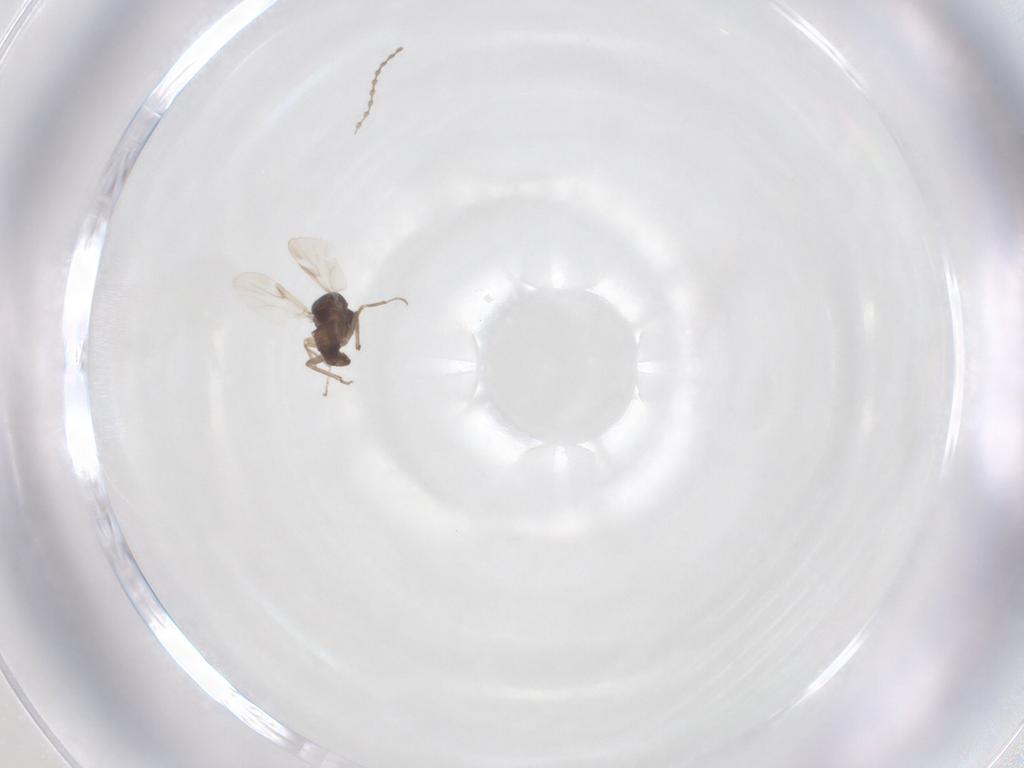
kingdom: Animalia
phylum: Arthropoda
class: Insecta
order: Diptera
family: Ceratopogonidae
